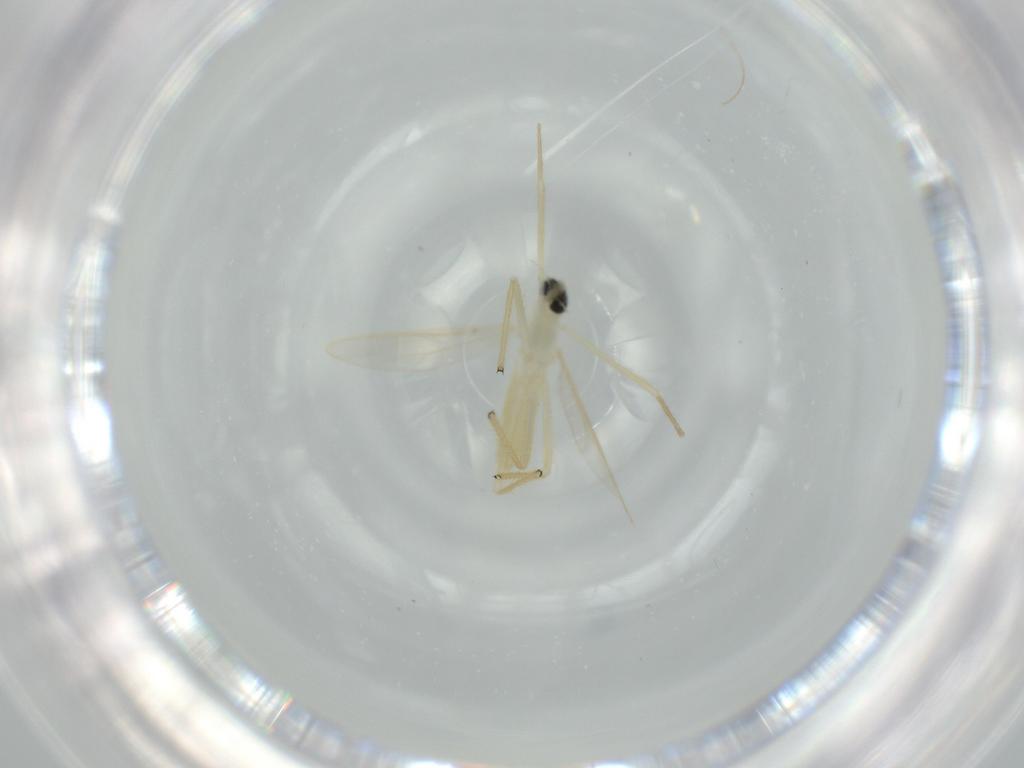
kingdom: Animalia
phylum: Arthropoda
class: Insecta
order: Diptera
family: Chironomidae
